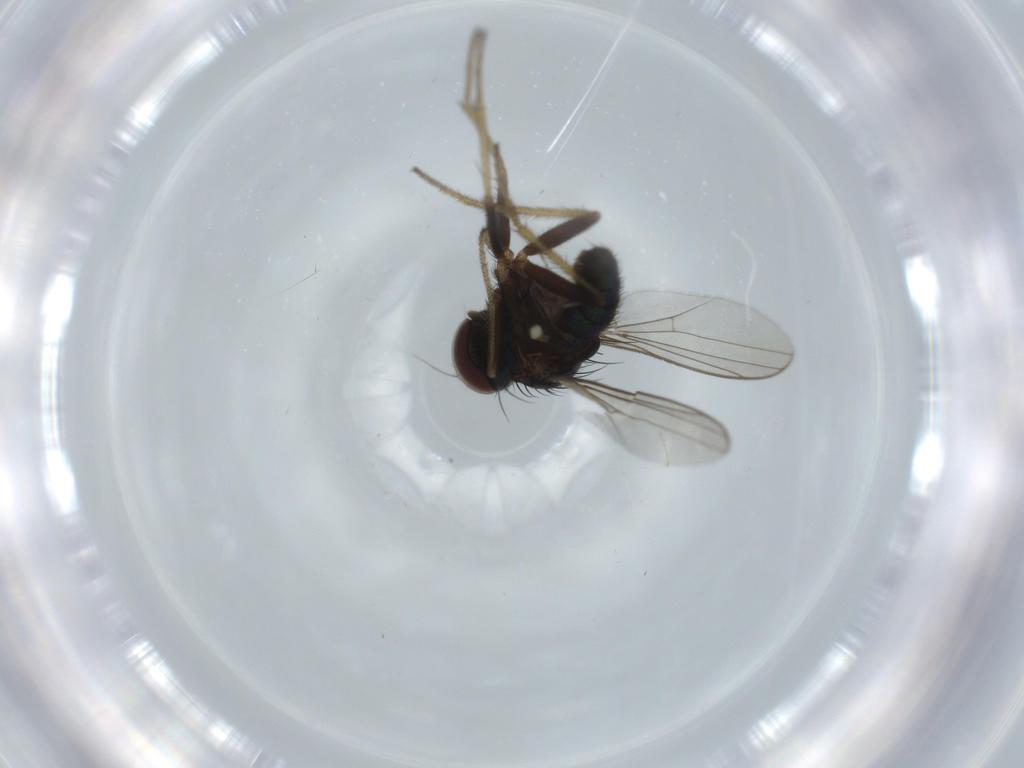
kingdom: Animalia
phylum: Arthropoda
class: Insecta
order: Diptera
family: Cecidomyiidae
